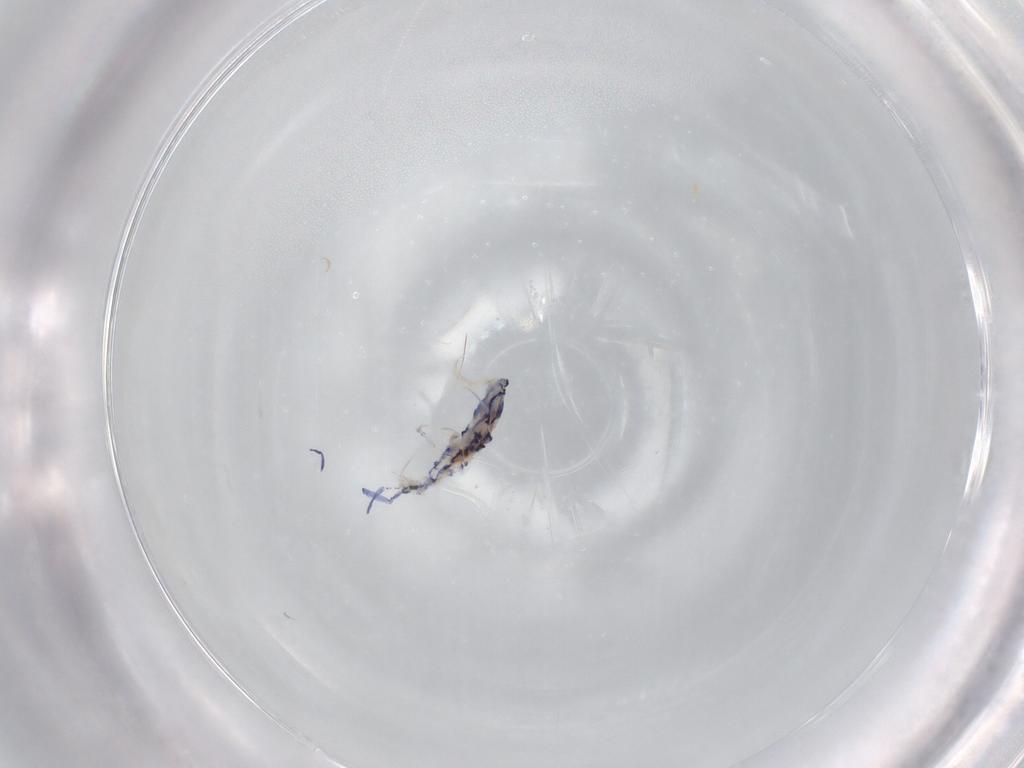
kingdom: Animalia
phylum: Arthropoda
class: Collembola
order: Entomobryomorpha
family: Entomobryidae
